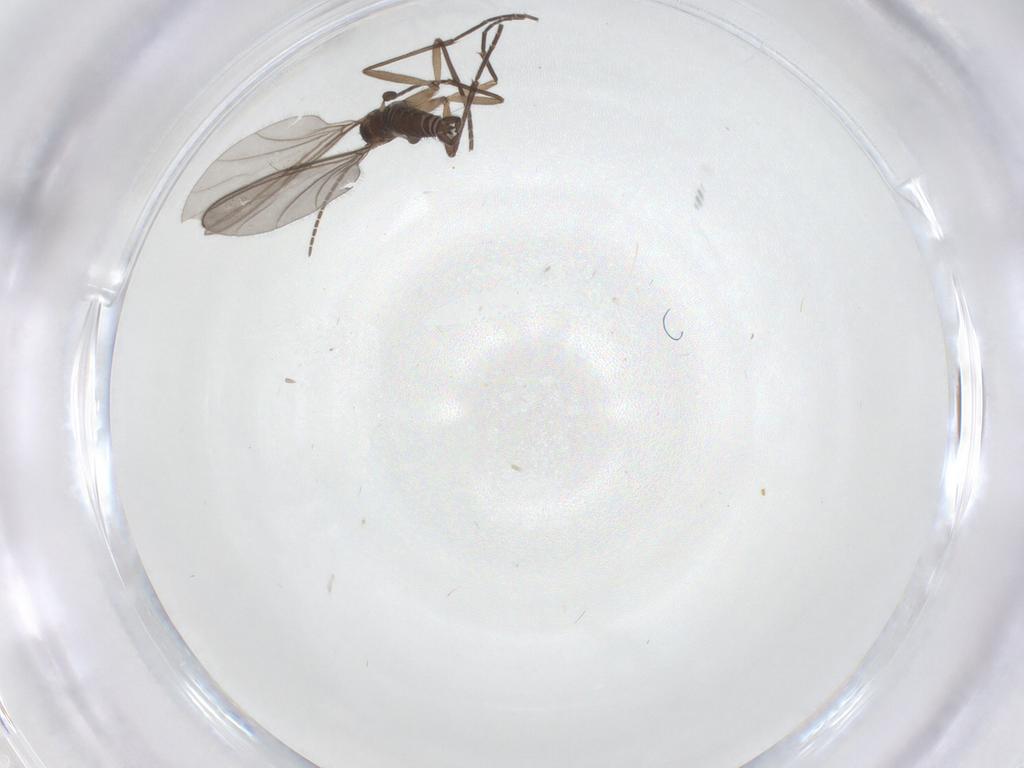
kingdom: Animalia
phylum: Arthropoda
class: Insecta
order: Diptera
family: Sciaridae
